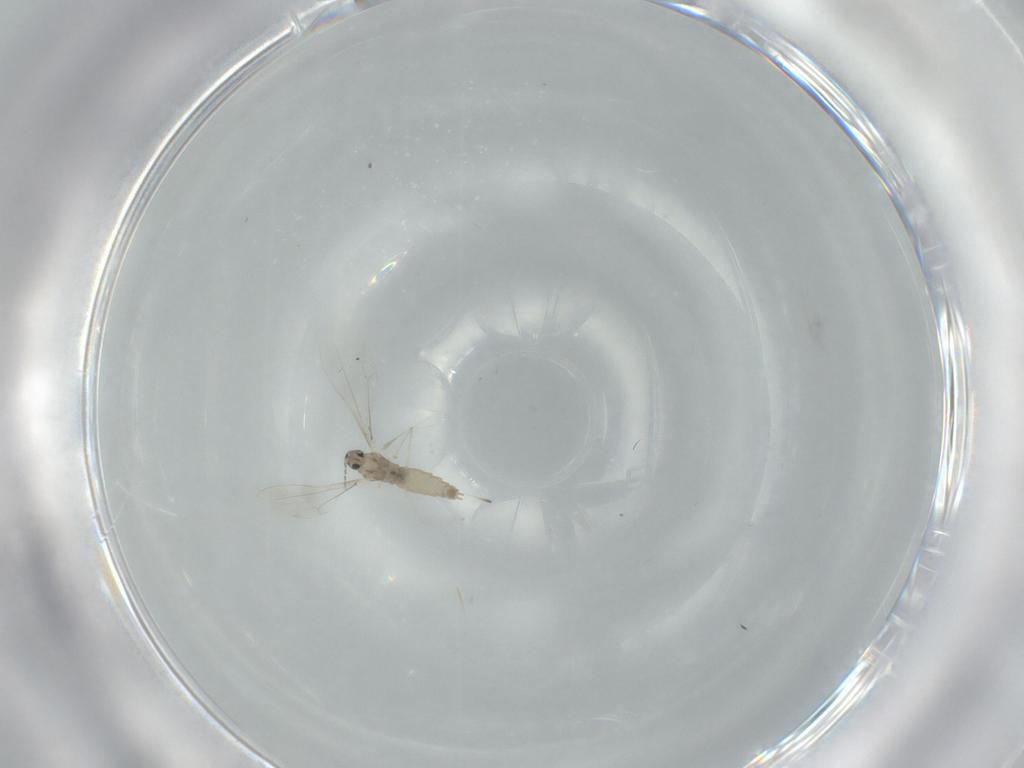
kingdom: Animalia
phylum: Arthropoda
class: Insecta
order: Diptera
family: Cecidomyiidae
